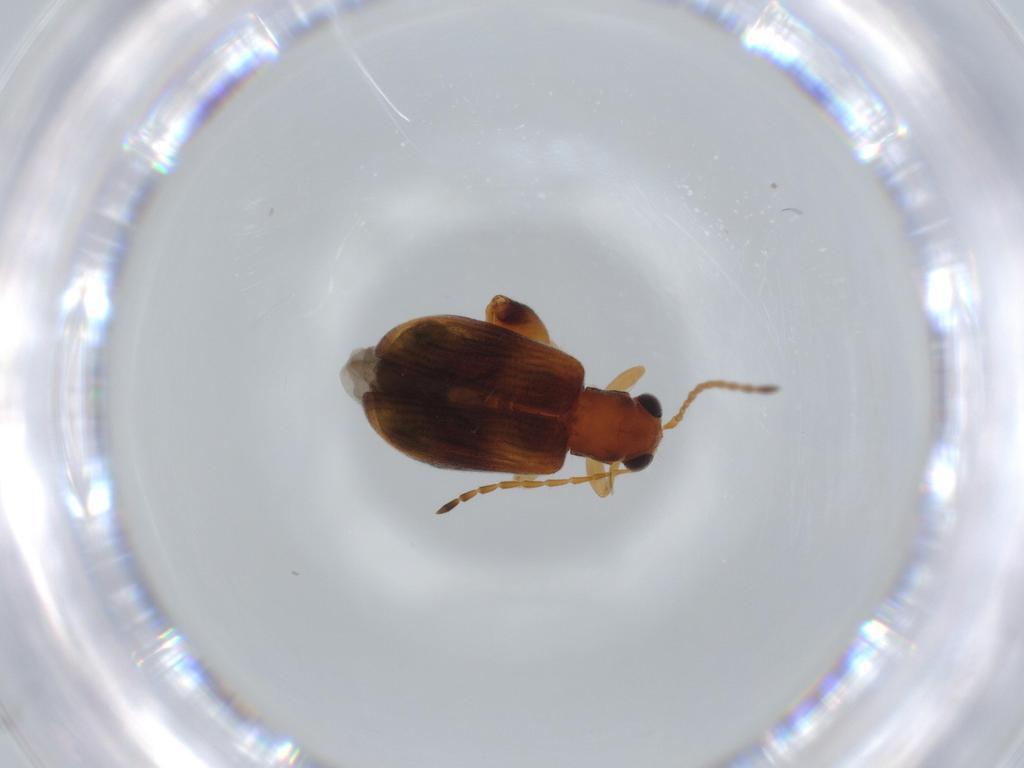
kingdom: Animalia
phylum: Arthropoda
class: Insecta
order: Coleoptera
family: Chrysomelidae
